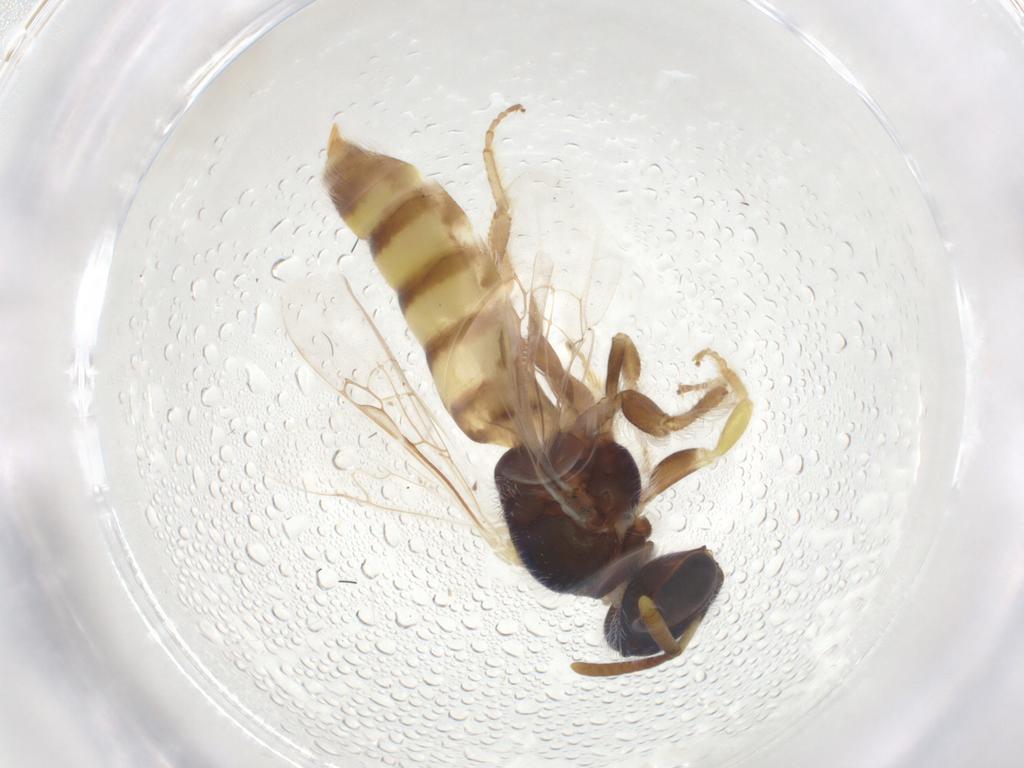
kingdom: Animalia
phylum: Arthropoda
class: Insecta
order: Hymenoptera
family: Andrenidae
